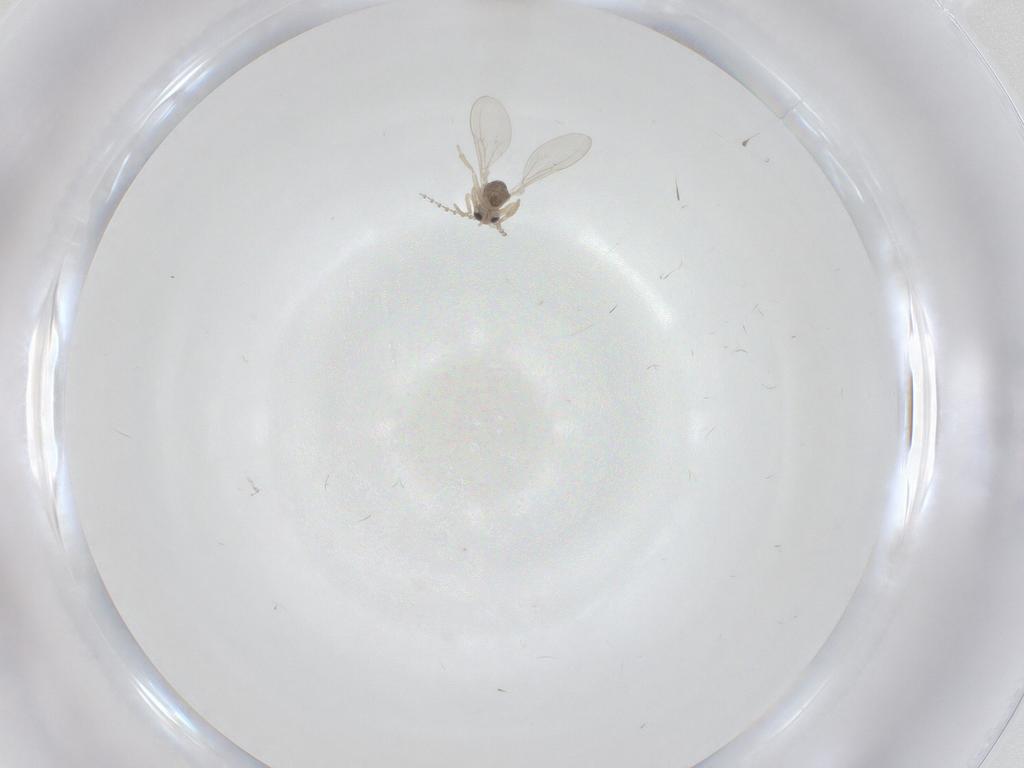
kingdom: Animalia
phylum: Arthropoda
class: Insecta
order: Diptera
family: Cecidomyiidae
